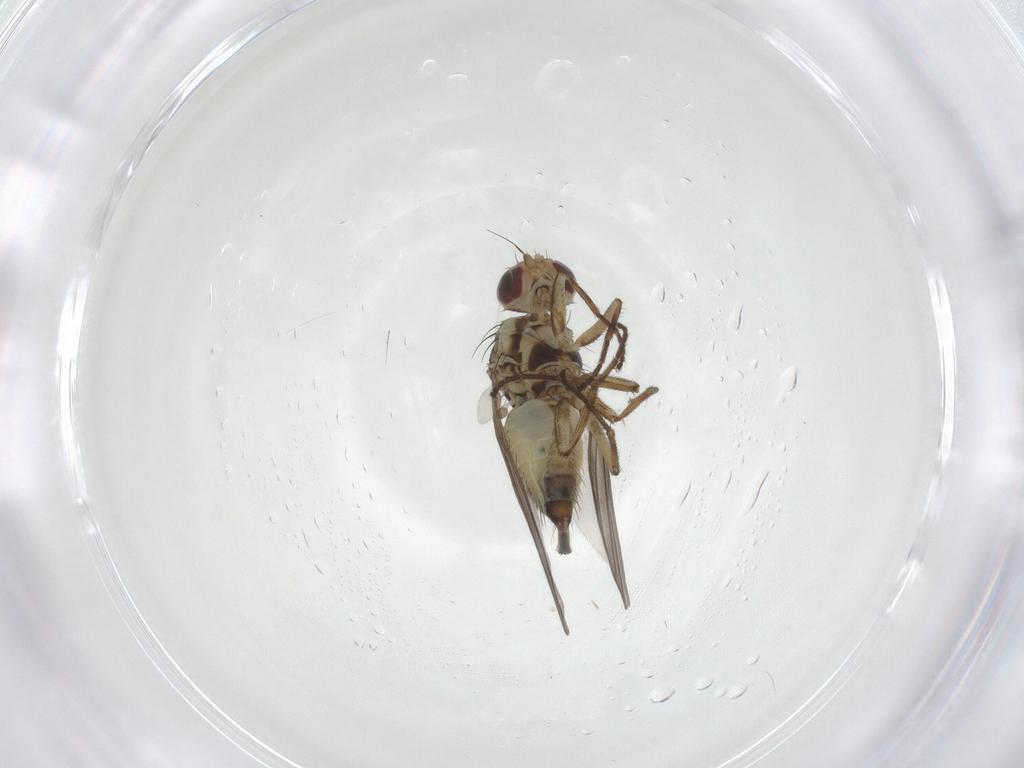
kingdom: Animalia
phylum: Arthropoda
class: Insecta
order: Diptera
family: Agromyzidae
